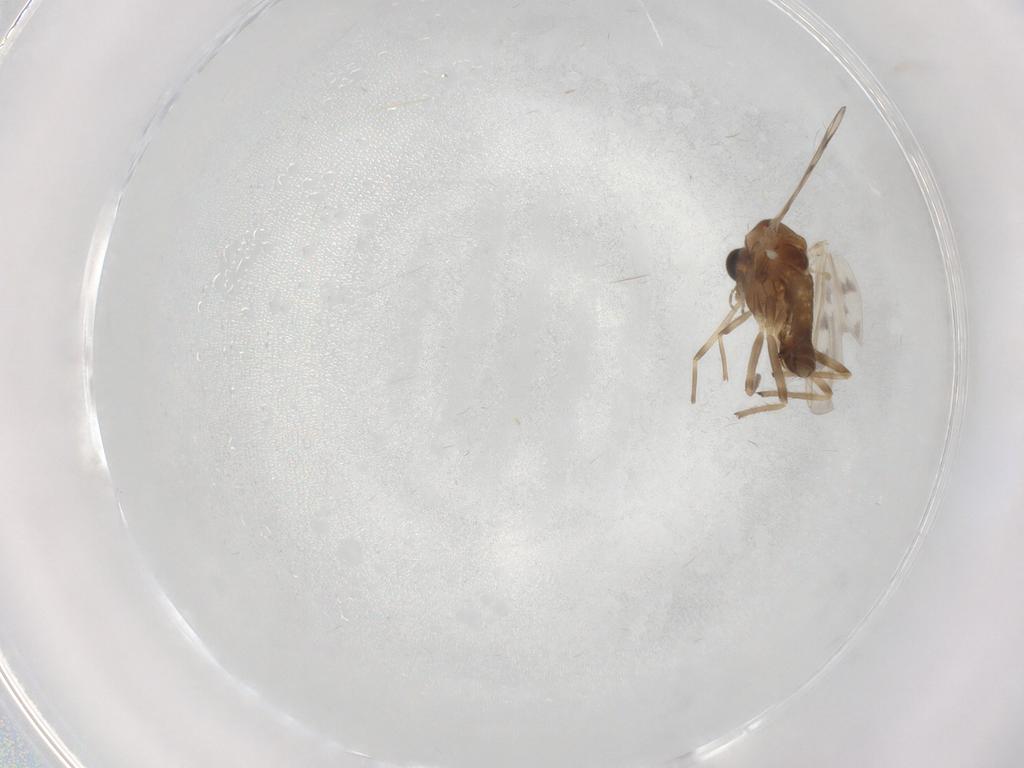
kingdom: Animalia
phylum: Arthropoda
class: Insecta
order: Diptera
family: Chironomidae
